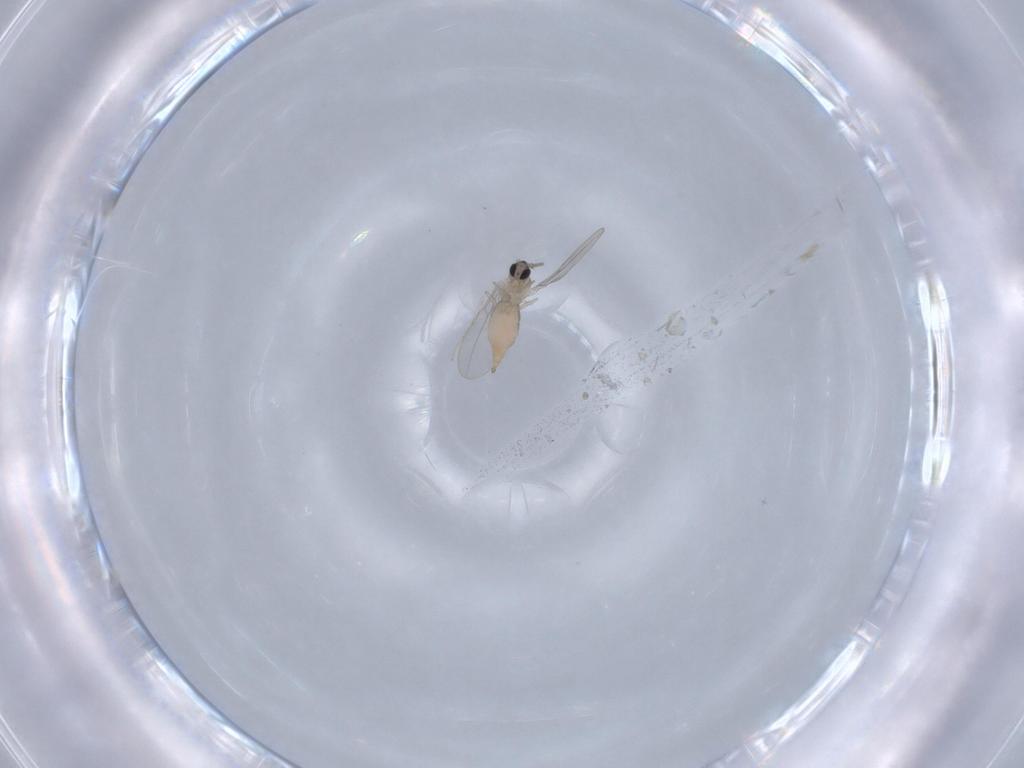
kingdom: Animalia
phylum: Arthropoda
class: Insecta
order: Diptera
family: Cecidomyiidae
